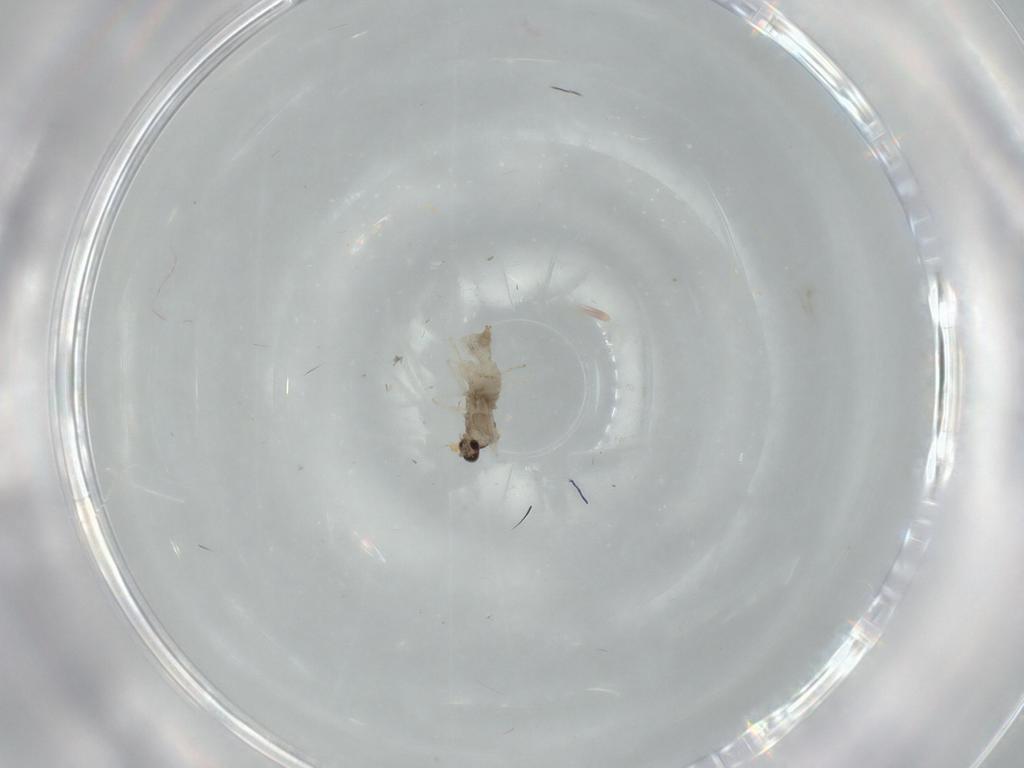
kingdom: Animalia
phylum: Arthropoda
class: Insecta
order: Diptera
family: Cecidomyiidae
